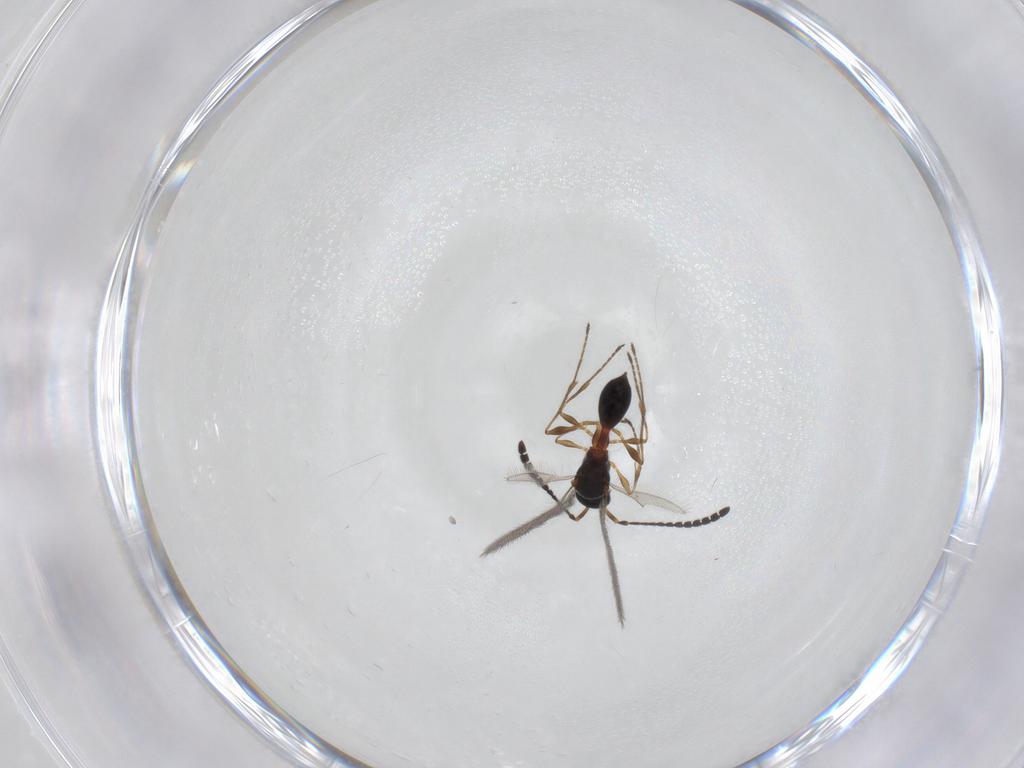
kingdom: Animalia
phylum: Arthropoda
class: Insecta
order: Hymenoptera
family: Diapriidae
